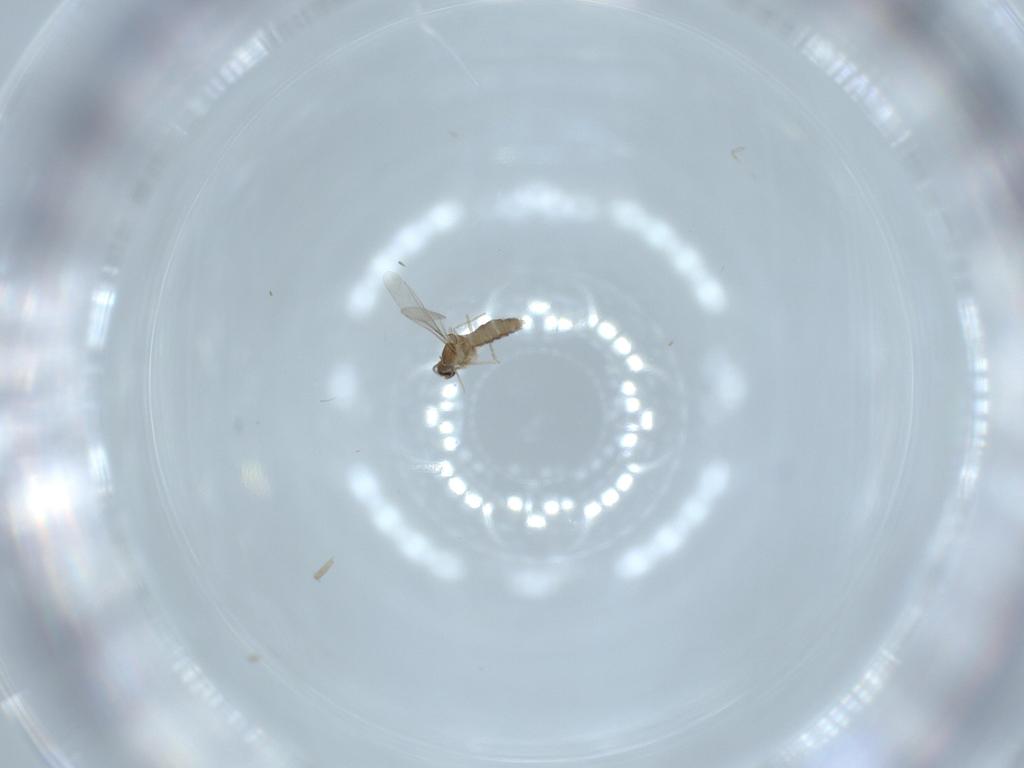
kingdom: Animalia
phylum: Arthropoda
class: Insecta
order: Diptera
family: Cecidomyiidae
